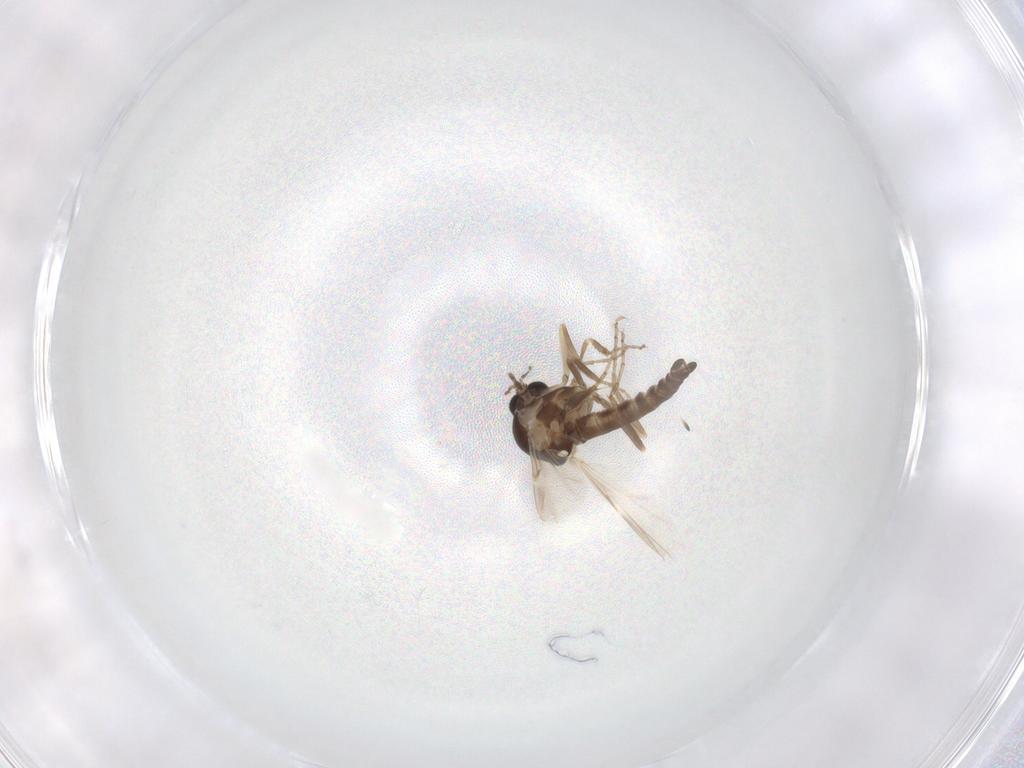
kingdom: Animalia
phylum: Arthropoda
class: Insecta
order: Diptera
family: Ceratopogonidae
